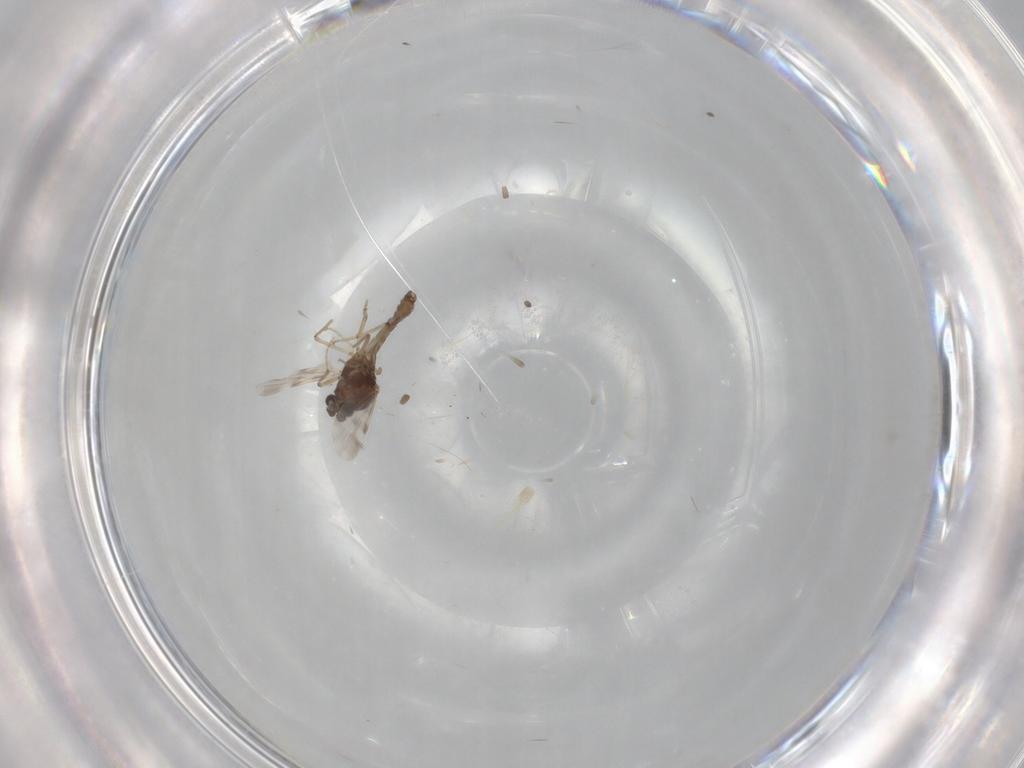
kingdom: Animalia
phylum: Arthropoda
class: Insecta
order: Diptera
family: Ceratopogonidae
